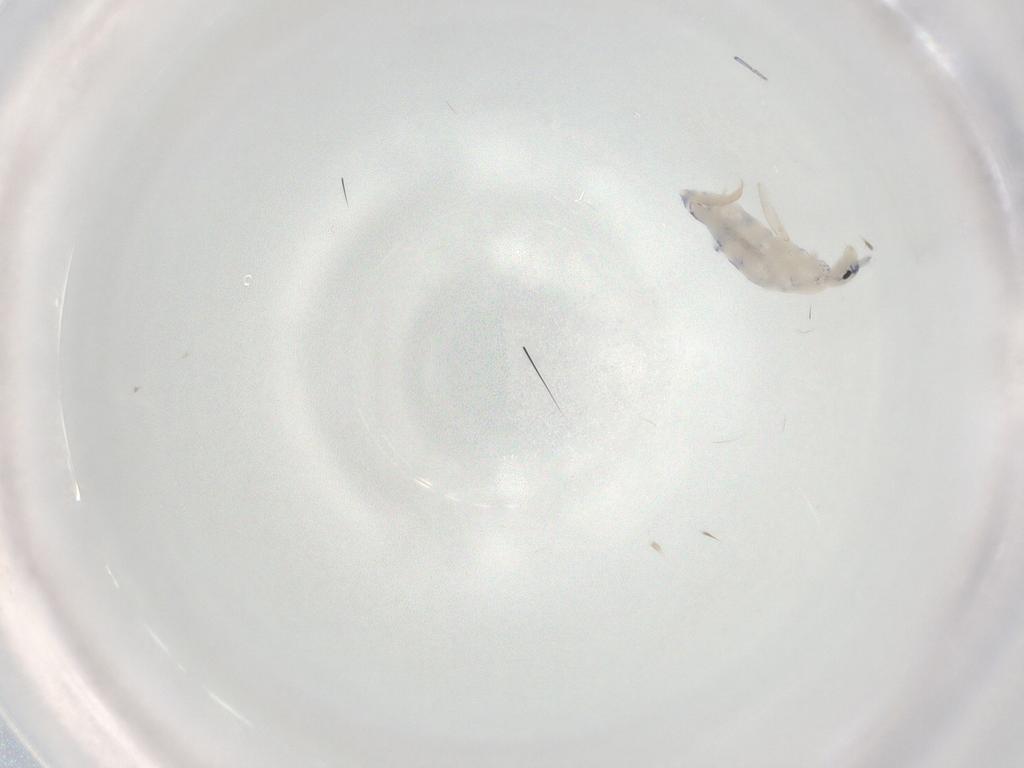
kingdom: Animalia
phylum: Arthropoda
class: Collembola
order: Entomobryomorpha
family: Entomobryidae
